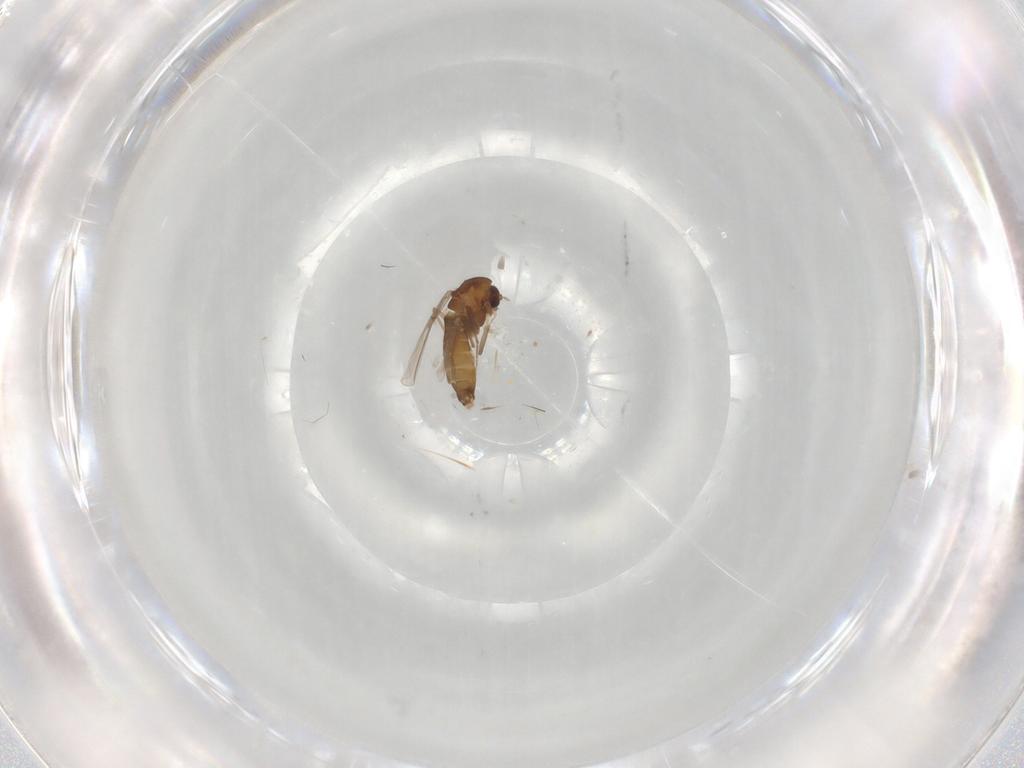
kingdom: Animalia
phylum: Arthropoda
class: Insecta
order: Diptera
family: Chironomidae
